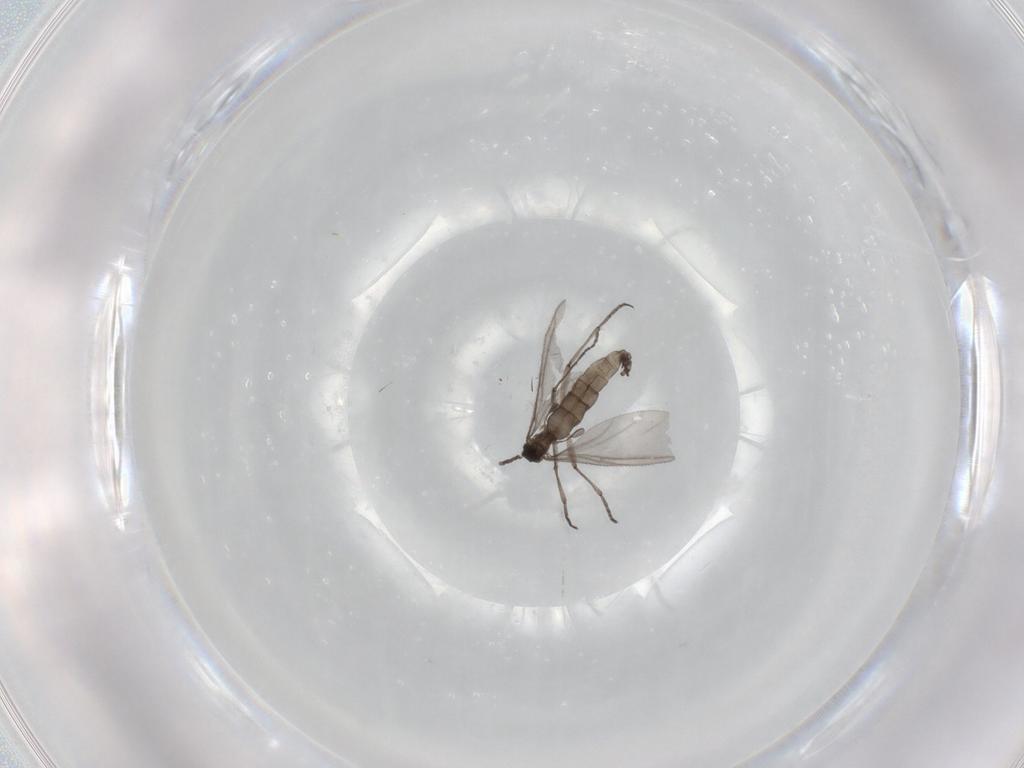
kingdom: Animalia
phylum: Arthropoda
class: Insecta
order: Diptera
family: Sciaridae
